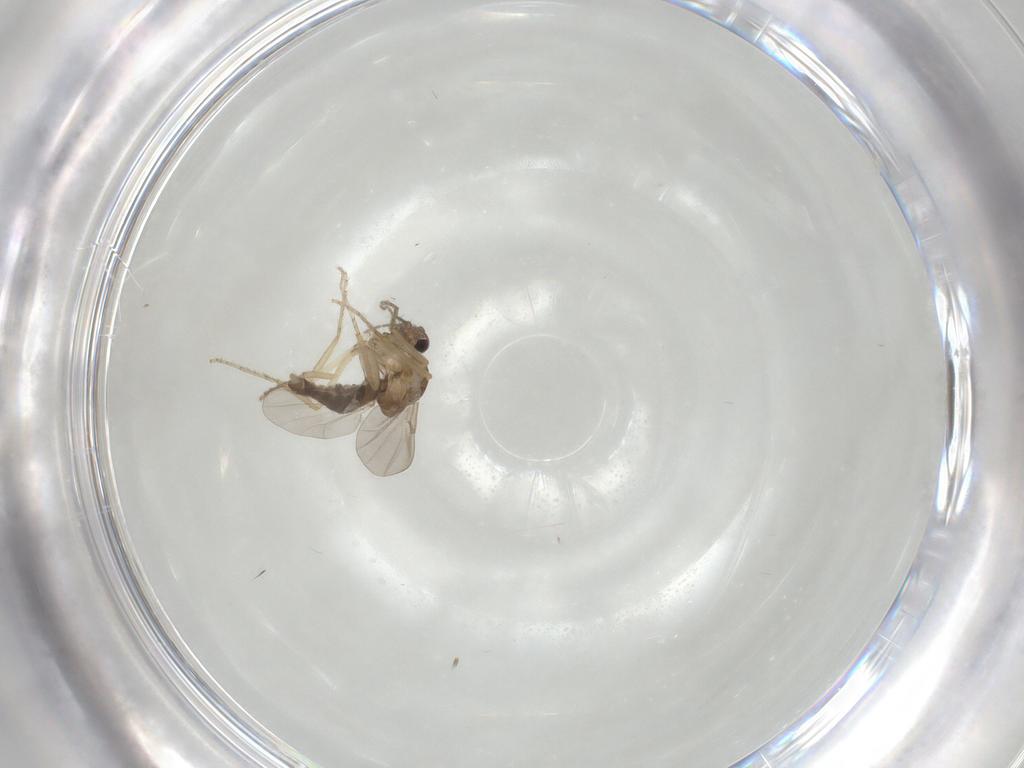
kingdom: Animalia
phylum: Arthropoda
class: Insecta
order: Diptera
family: Ceratopogonidae
